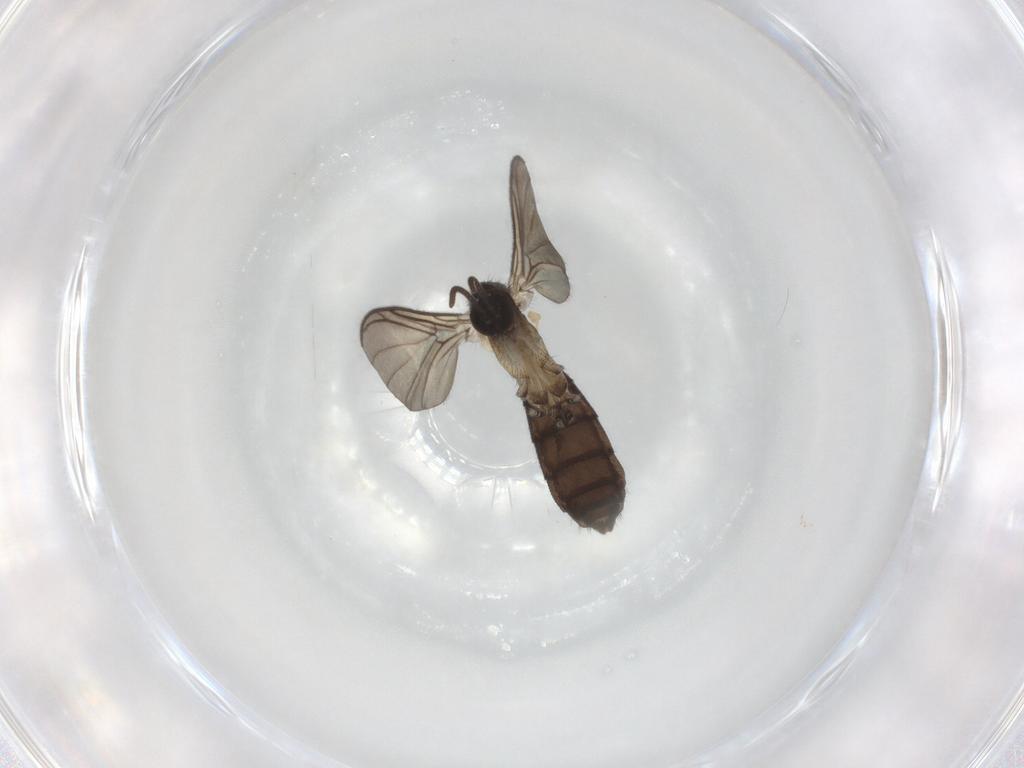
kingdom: Animalia
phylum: Arthropoda
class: Insecta
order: Diptera
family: Keroplatidae
